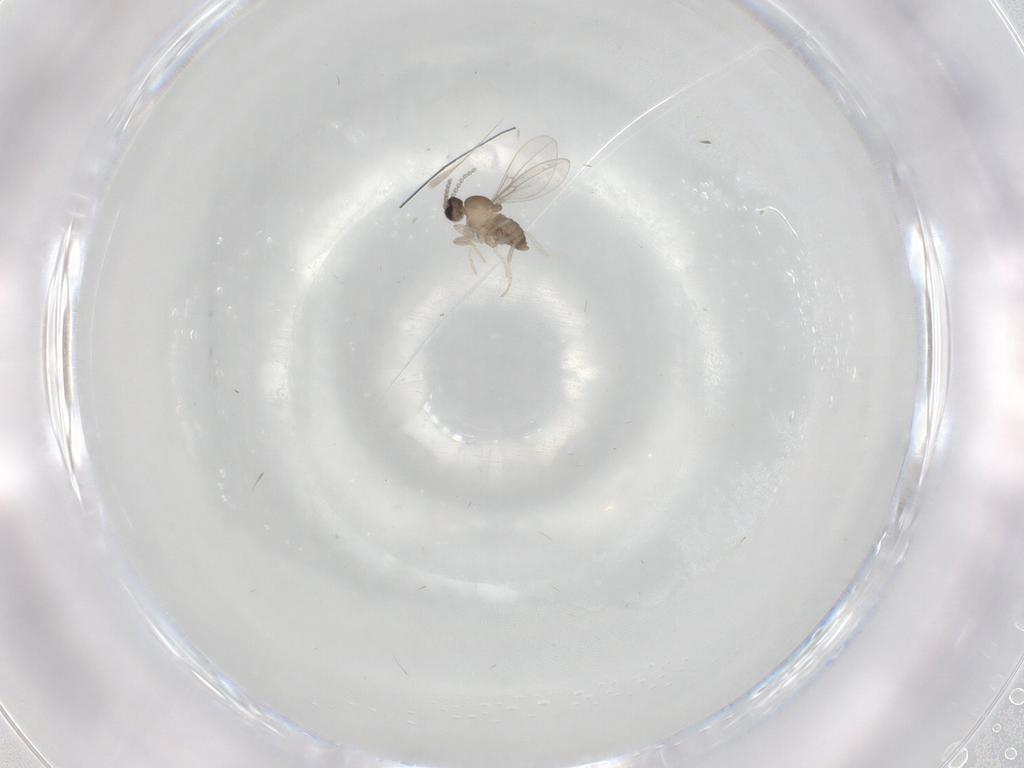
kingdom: Animalia
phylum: Arthropoda
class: Insecta
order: Diptera
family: Cecidomyiidae
